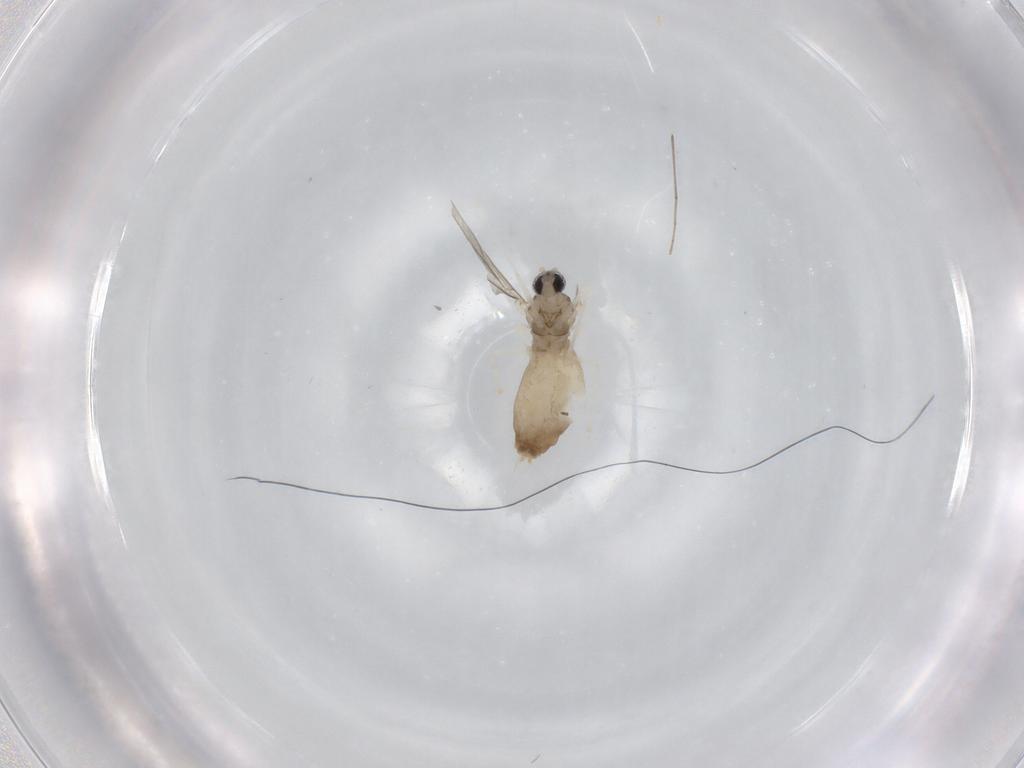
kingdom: Animalia
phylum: Arthropoda
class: Insecta
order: Diptera
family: Cecidomyiidae
